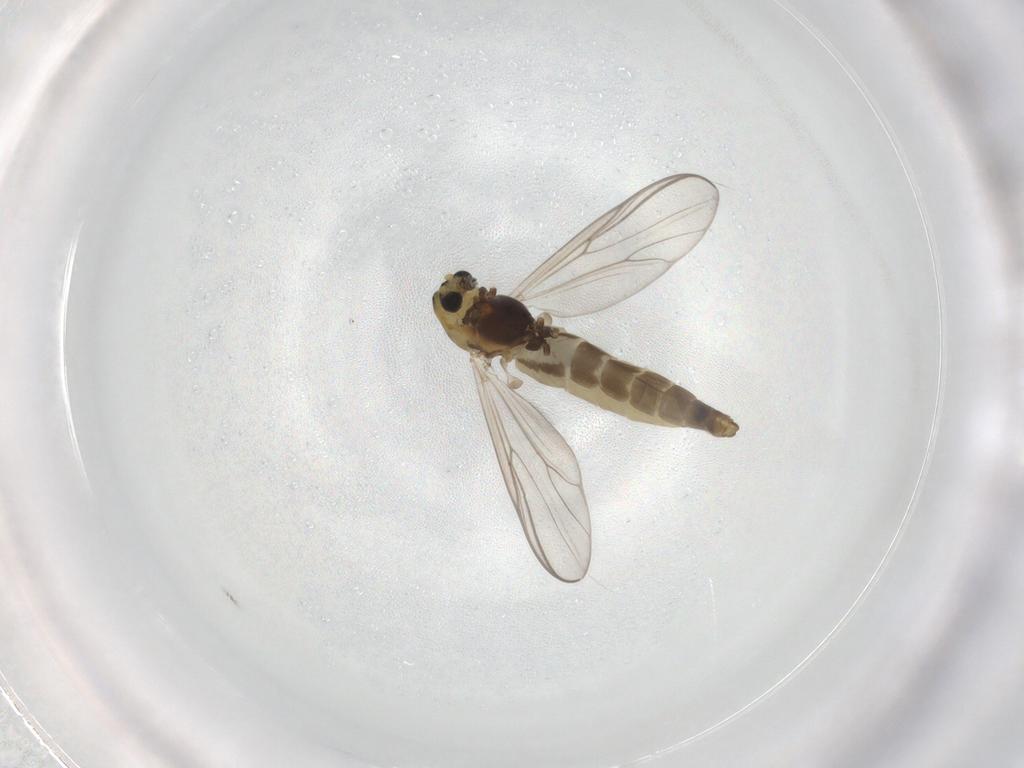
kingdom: Animalia
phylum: Arthropoda
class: Insecta
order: Diptera
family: Chironomidae
